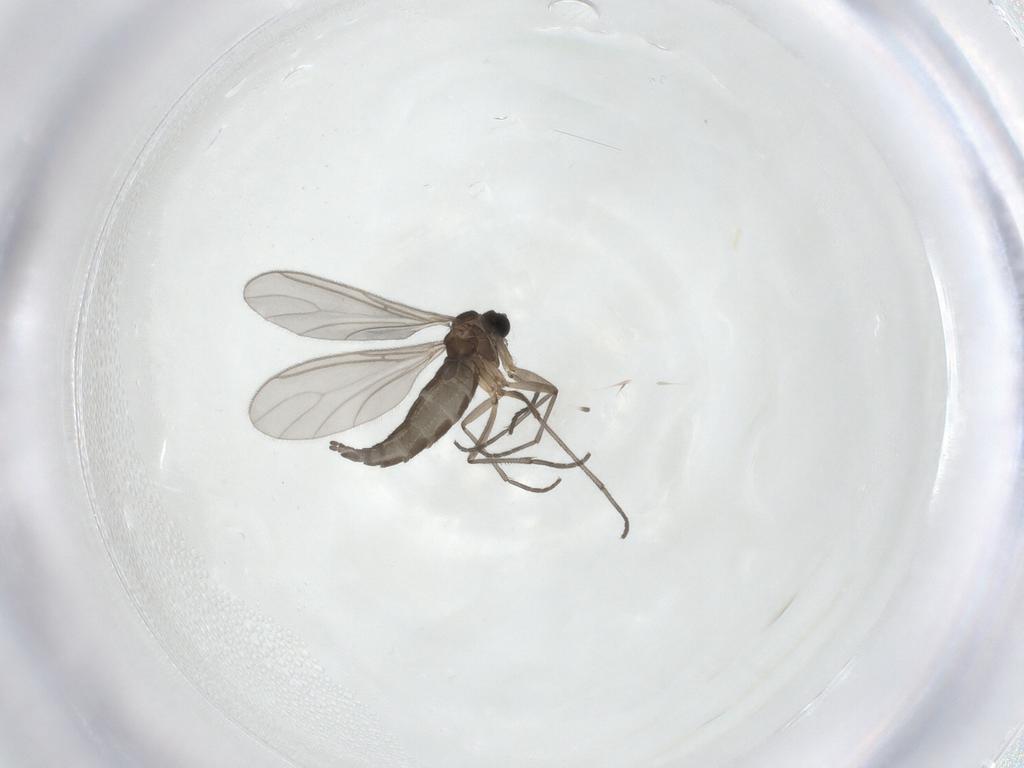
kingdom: Animalia
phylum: Arthropoda
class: Insecta
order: Diptera
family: Sciaridae
